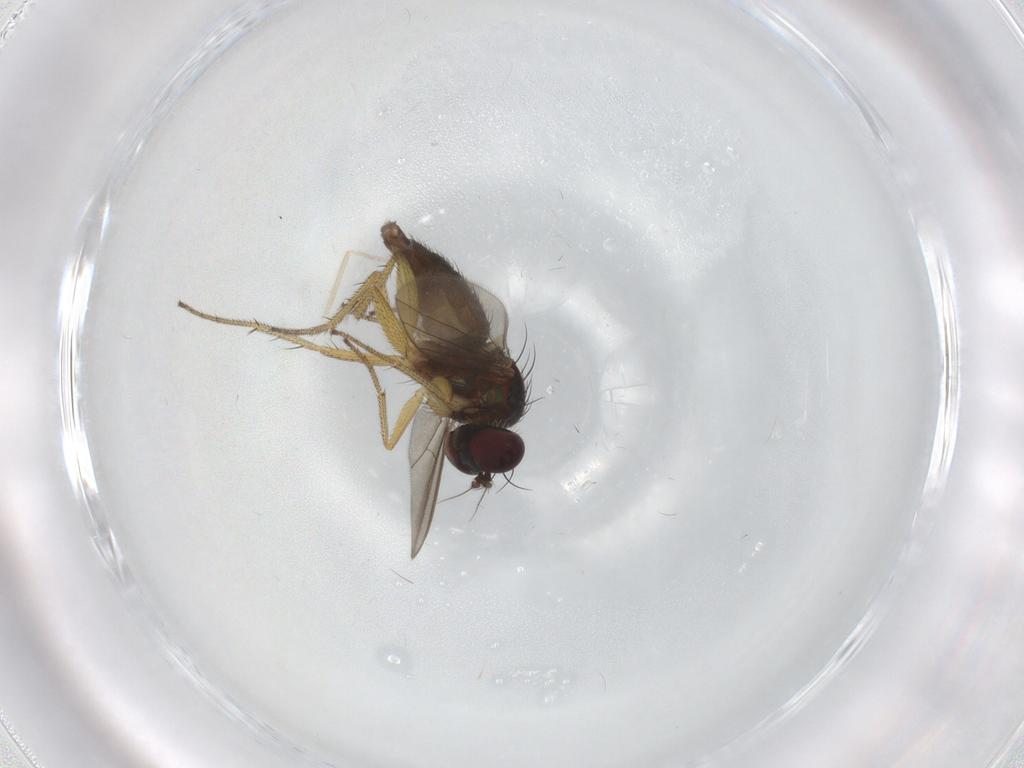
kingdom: Animalia
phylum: Arthropoda
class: Insecta
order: Diptera
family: Dolichopodidae
